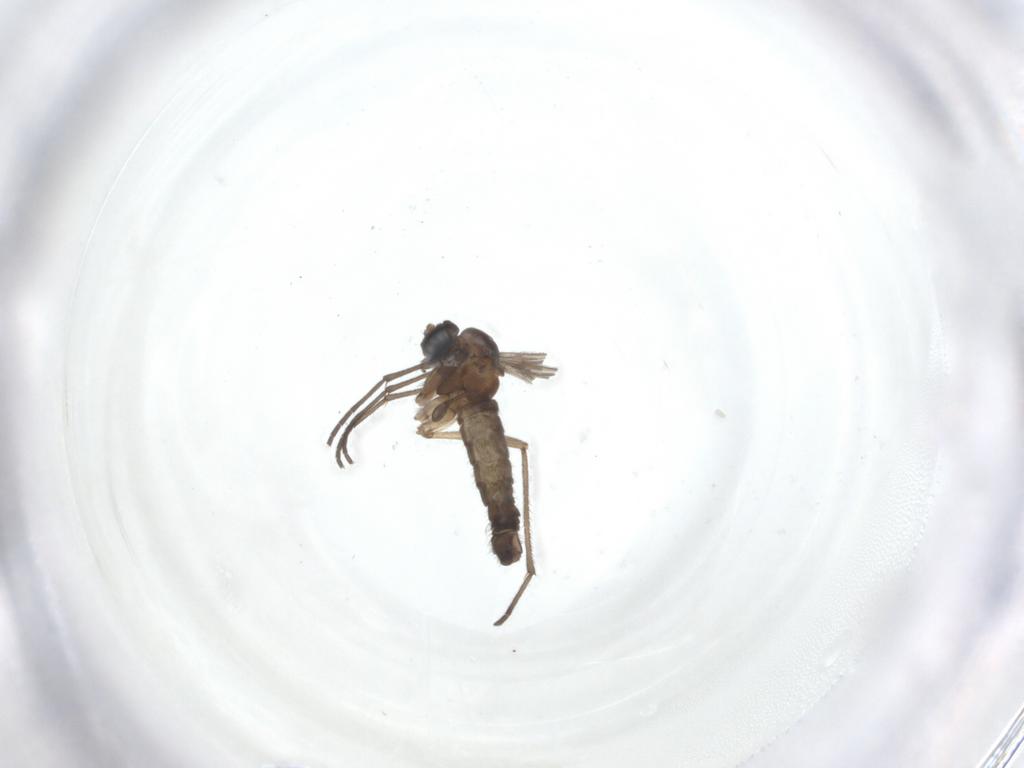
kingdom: Animalia
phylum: Arthropoda
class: Insecta
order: Diptera
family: Sciaridae
